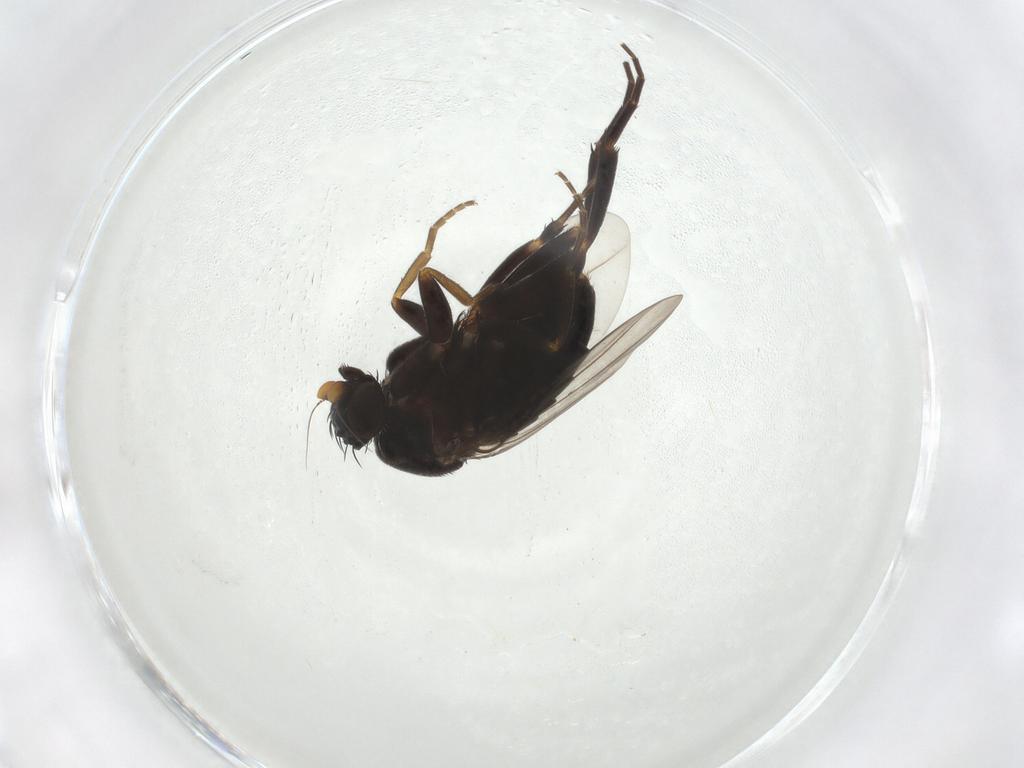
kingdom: Animalia
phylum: Arthropoda
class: Insecta
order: Diptera
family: Phoridae
